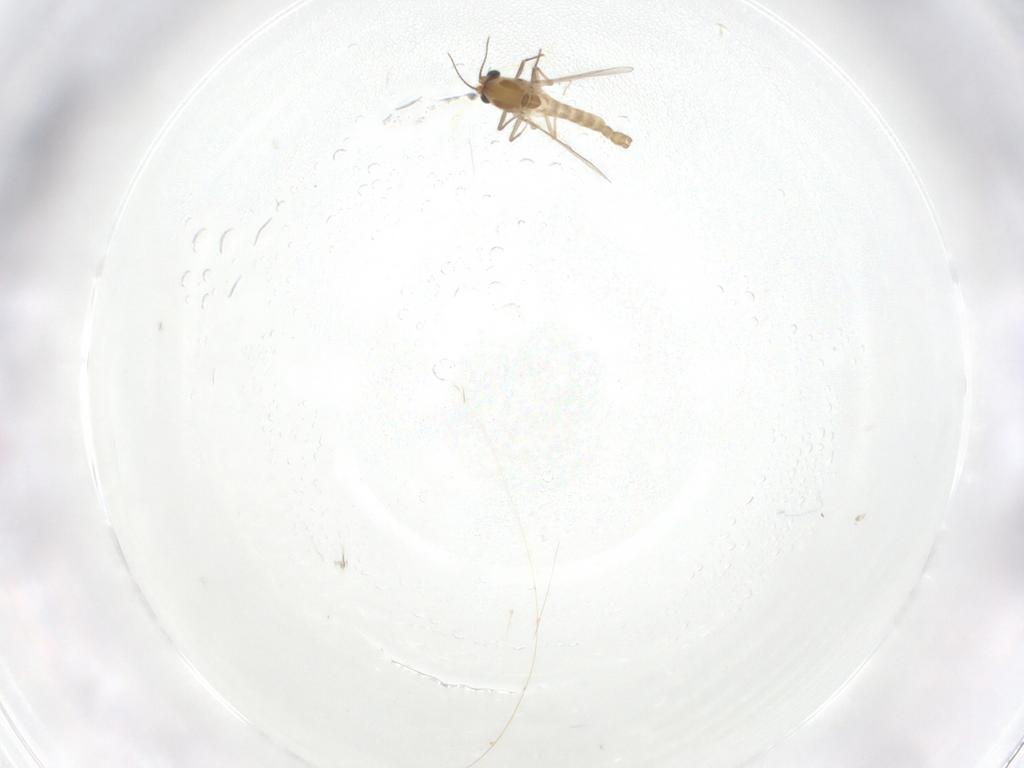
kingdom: Animalia
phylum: Arthropoda
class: Insecta
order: Diptera
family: Chironomidae
